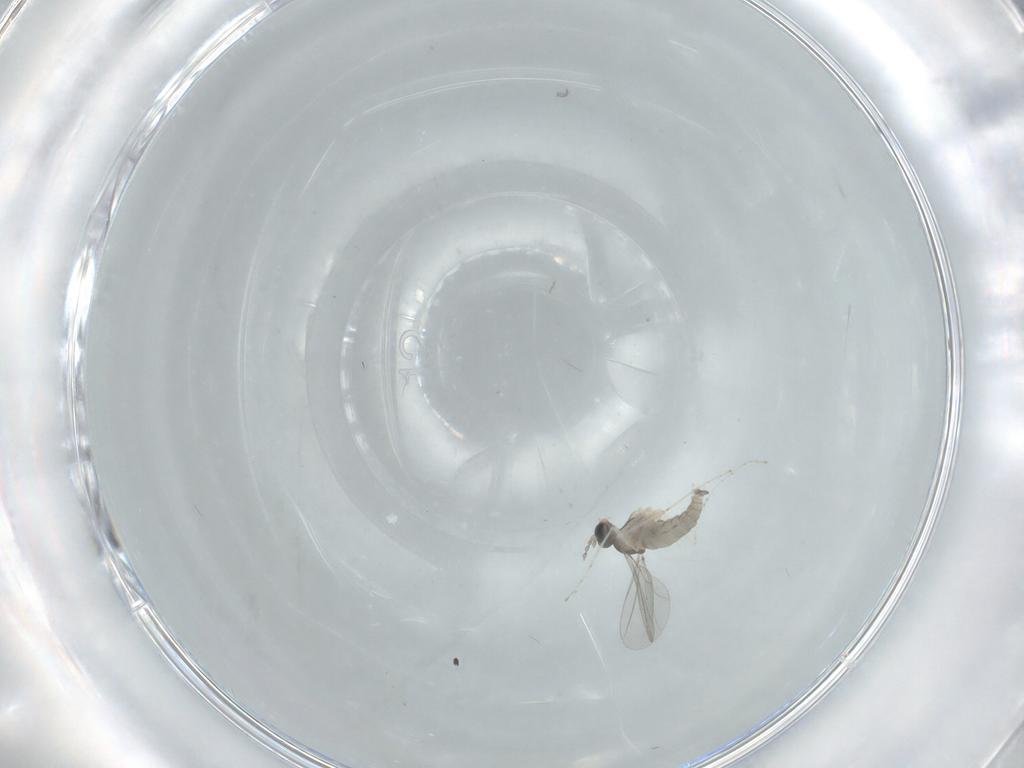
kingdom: Animalia
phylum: Arthropoda
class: Insecta
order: Diptera
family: Cecidomyiidae
